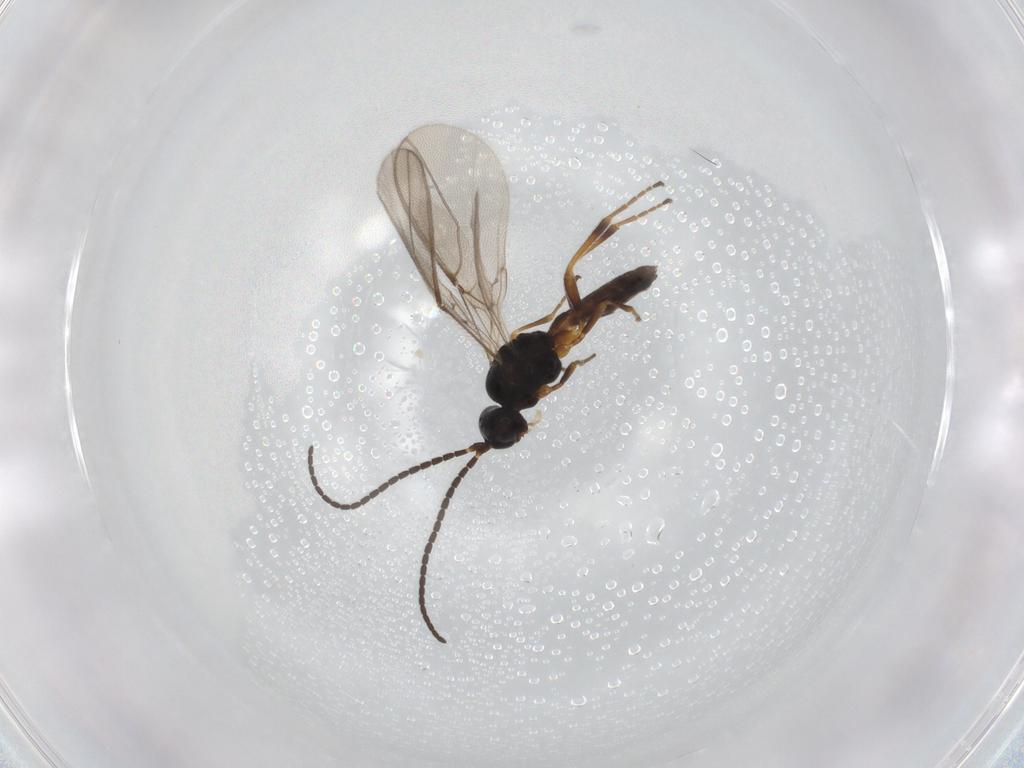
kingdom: Animalia
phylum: Arthropoda
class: Insecta
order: Hymenoptera
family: Braconidae
